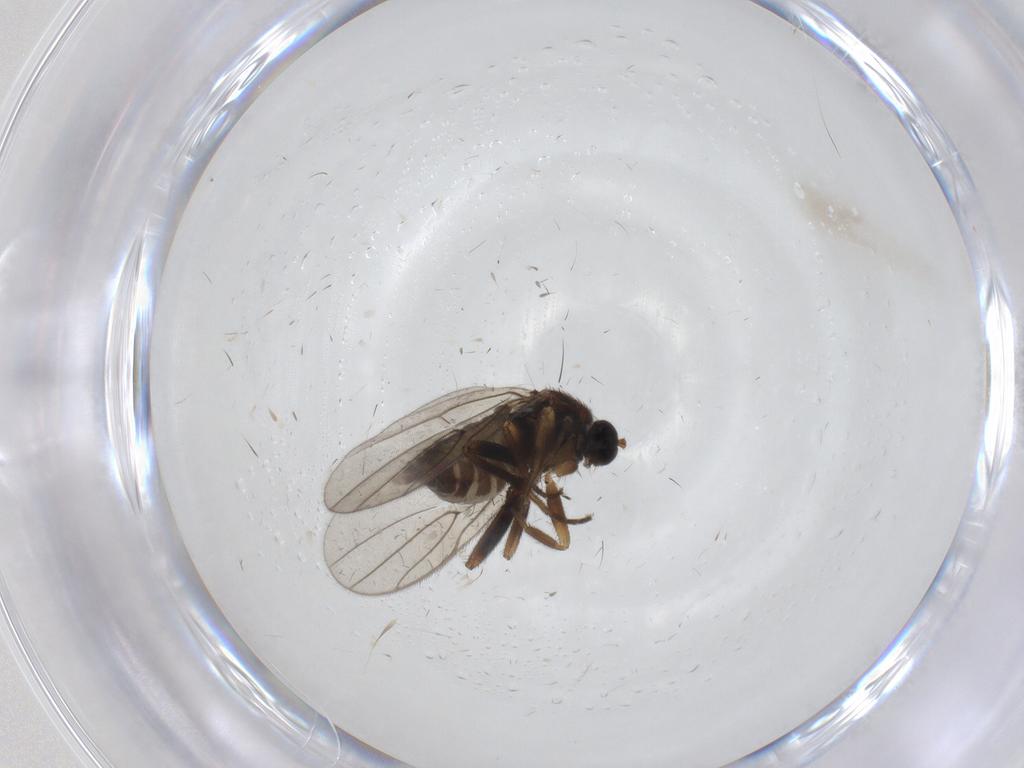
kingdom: Animalia
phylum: Arthropoda
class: Insecta
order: Diptera
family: Hybotidae
